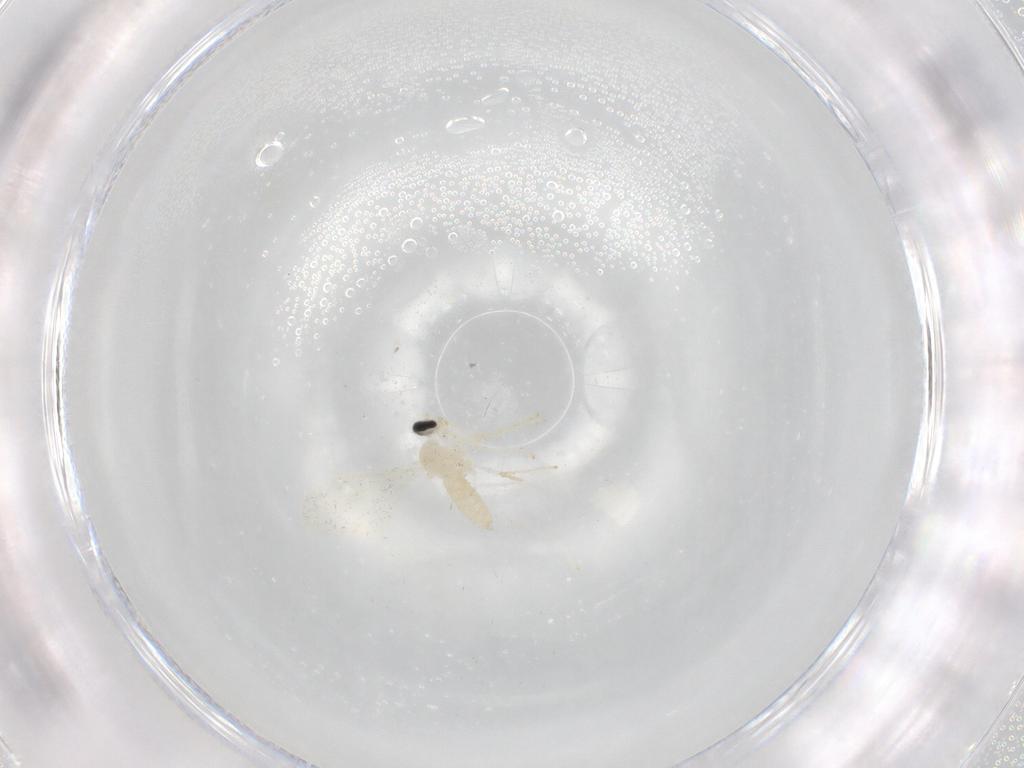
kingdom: Animalia
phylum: Arthropoda
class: Insecta
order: Diptera
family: Cecidomyiidae
